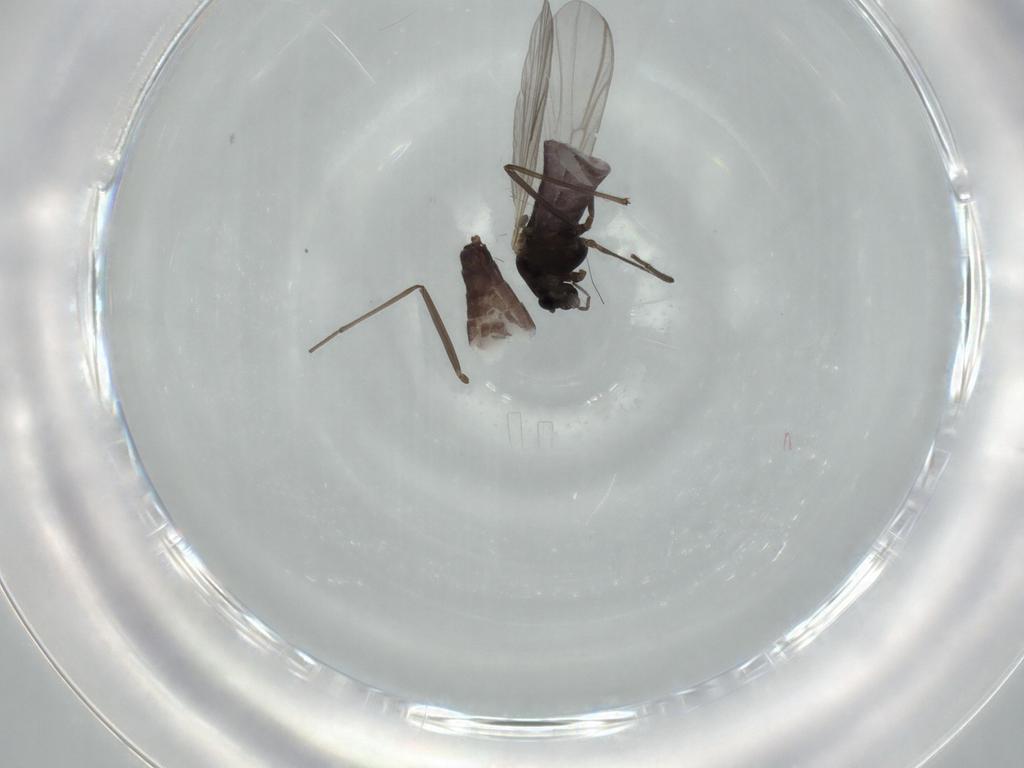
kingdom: Animalia
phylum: Arthropoda
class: Insecta
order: Diptera
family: Chironomidae
